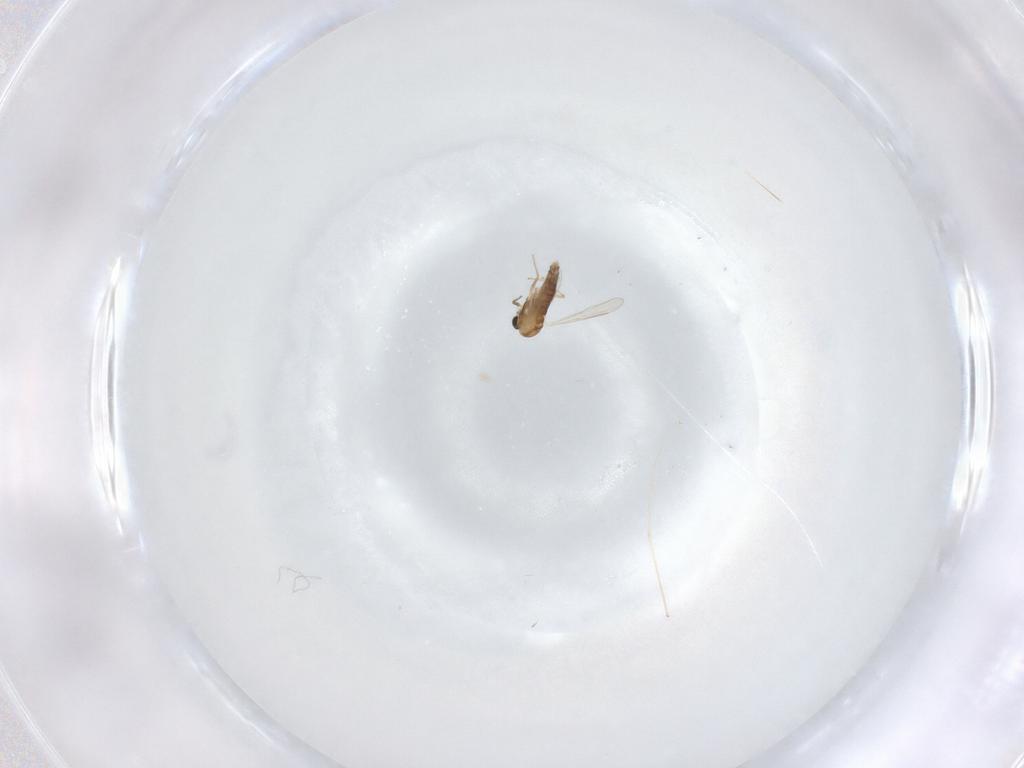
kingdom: Animalia
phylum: Arthropoda
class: Insecta
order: Diptera
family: Chironomidae
